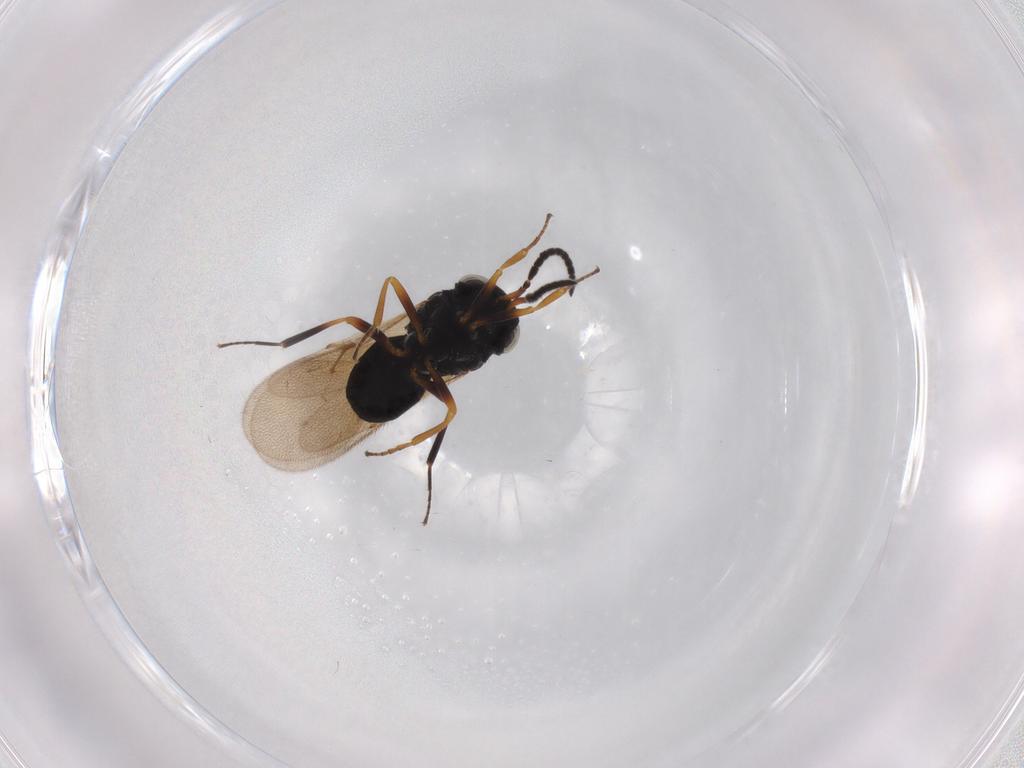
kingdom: Animalia
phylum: Arthropoda
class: Insecta
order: Hymenoptera
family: Scelionidae
